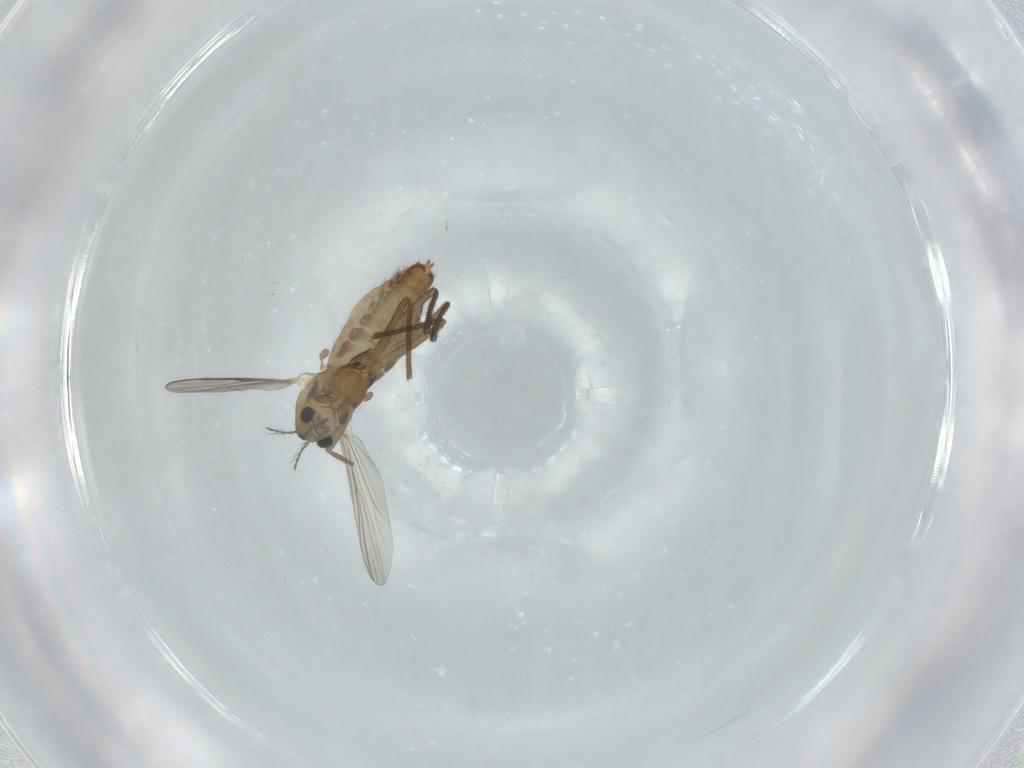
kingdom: Animalia
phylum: Arthropoda
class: Insecta
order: Diptera
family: Chironomidae
